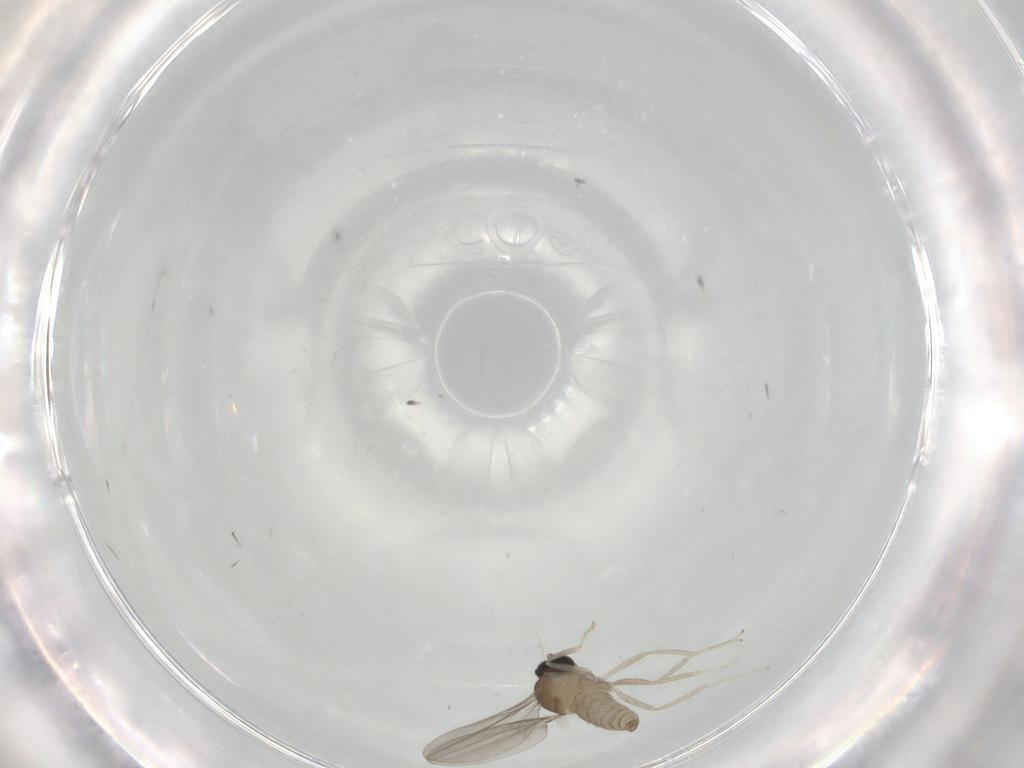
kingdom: Animalia
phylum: Arthropoda
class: Insecta
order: Diptera
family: Cecidomyiidae
